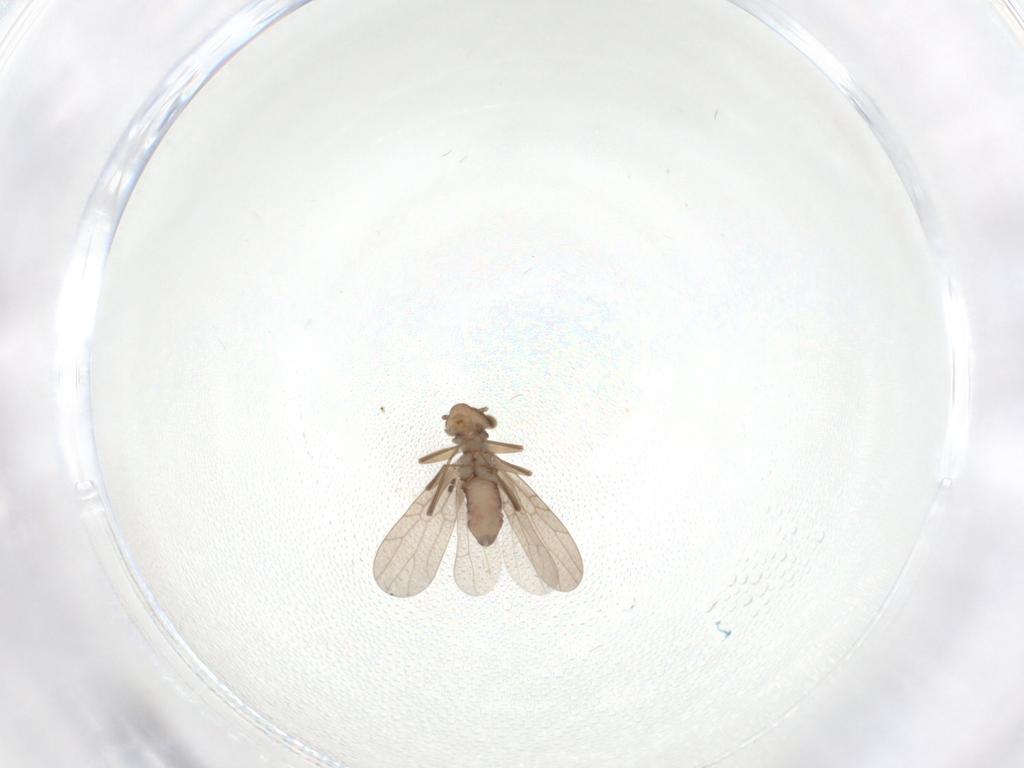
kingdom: Animalia
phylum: Arthropoda
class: Insecta
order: Psocodea
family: Lepidopsocidae
